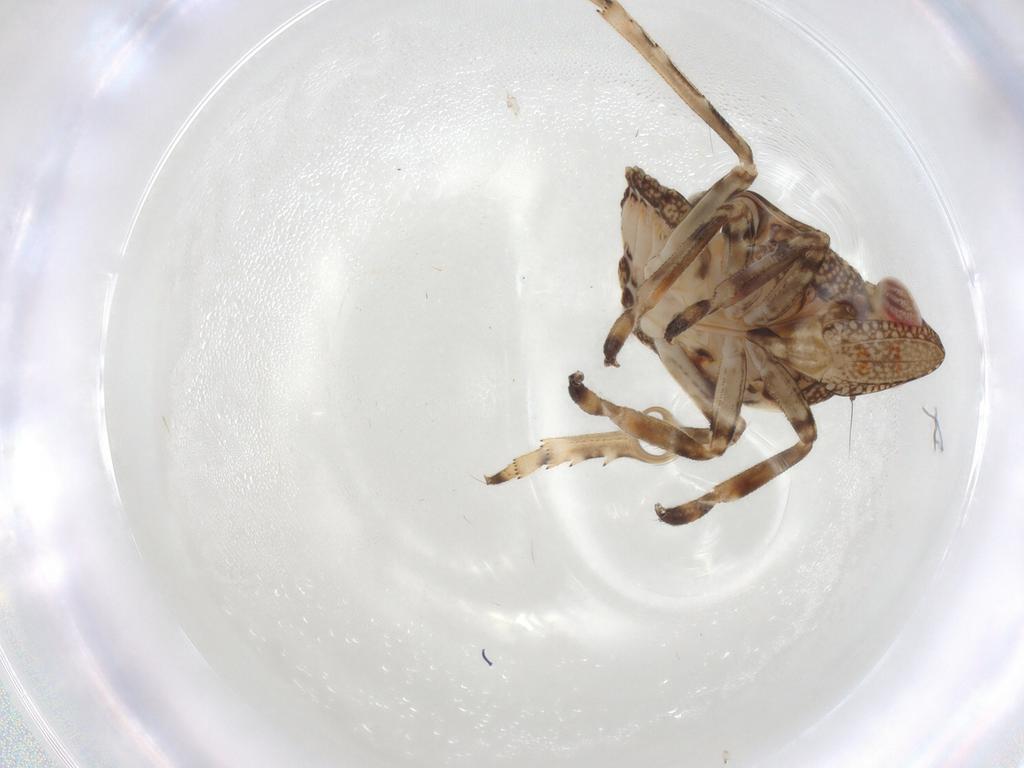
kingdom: Animalia
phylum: Arthropoda
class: Insecta
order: Hemiptera
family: Tropiduchidae
